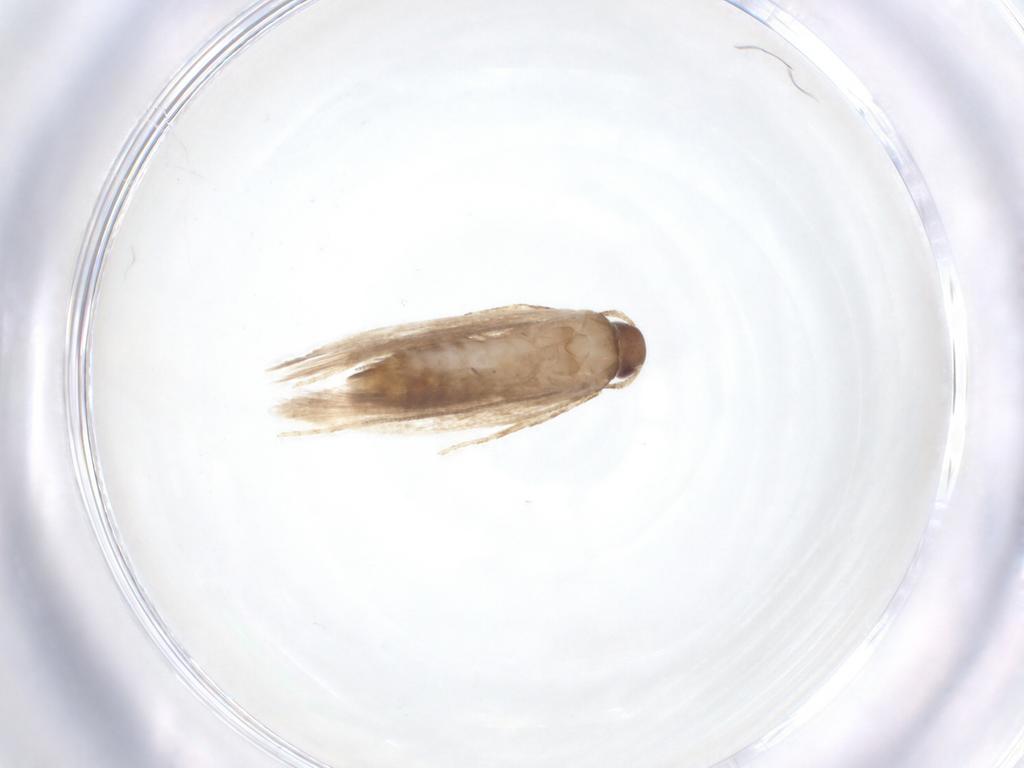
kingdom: Animalia
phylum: Arthropoda
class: Insecta
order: Lepidoptera
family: Gelechiidae
